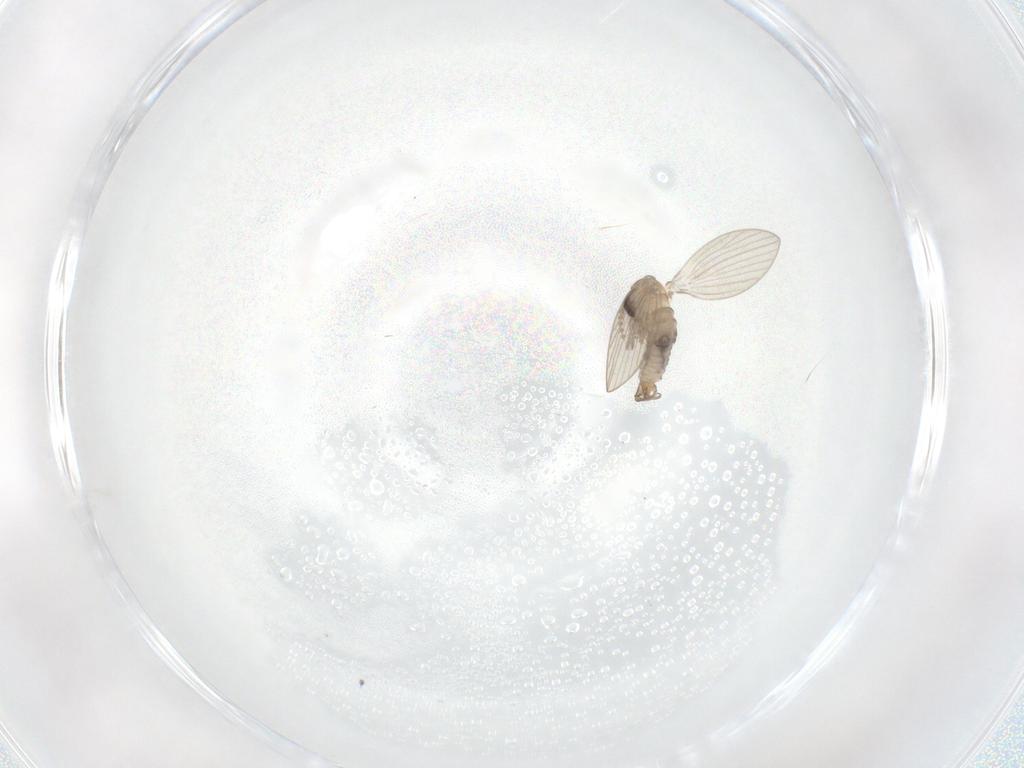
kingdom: Animalia
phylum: Arthropoda
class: Insecta
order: Diptera
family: Psychodidae
